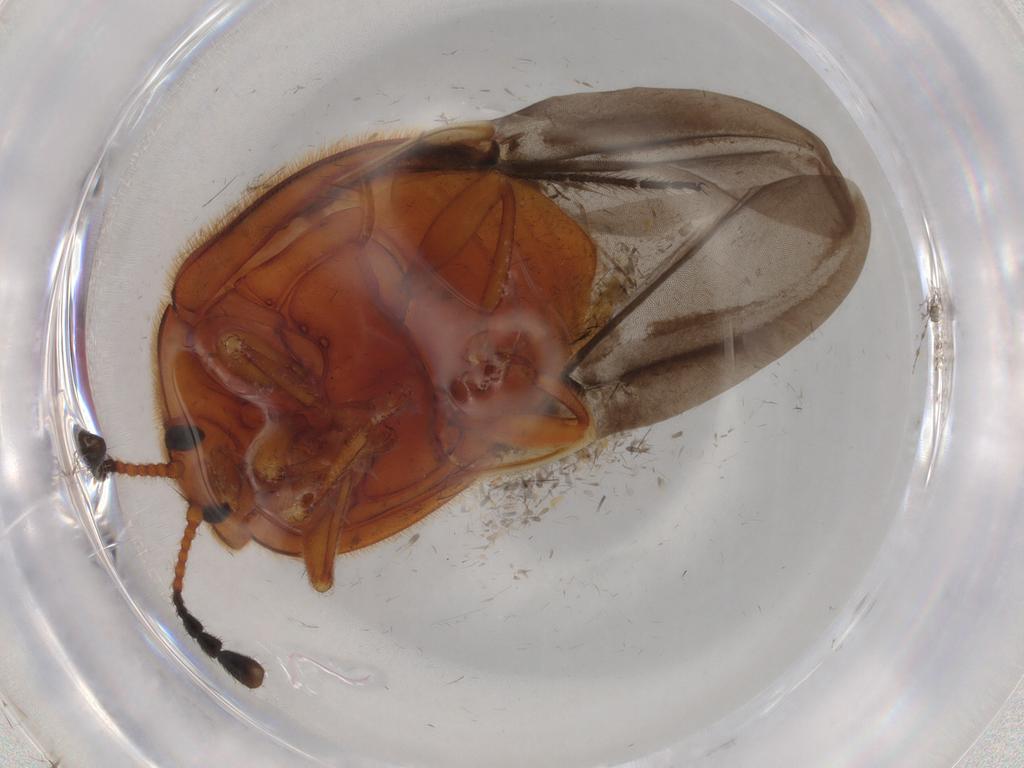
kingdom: Animalia
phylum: Arthropoda
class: Insecta
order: Coleoptera
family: Endomychidae
